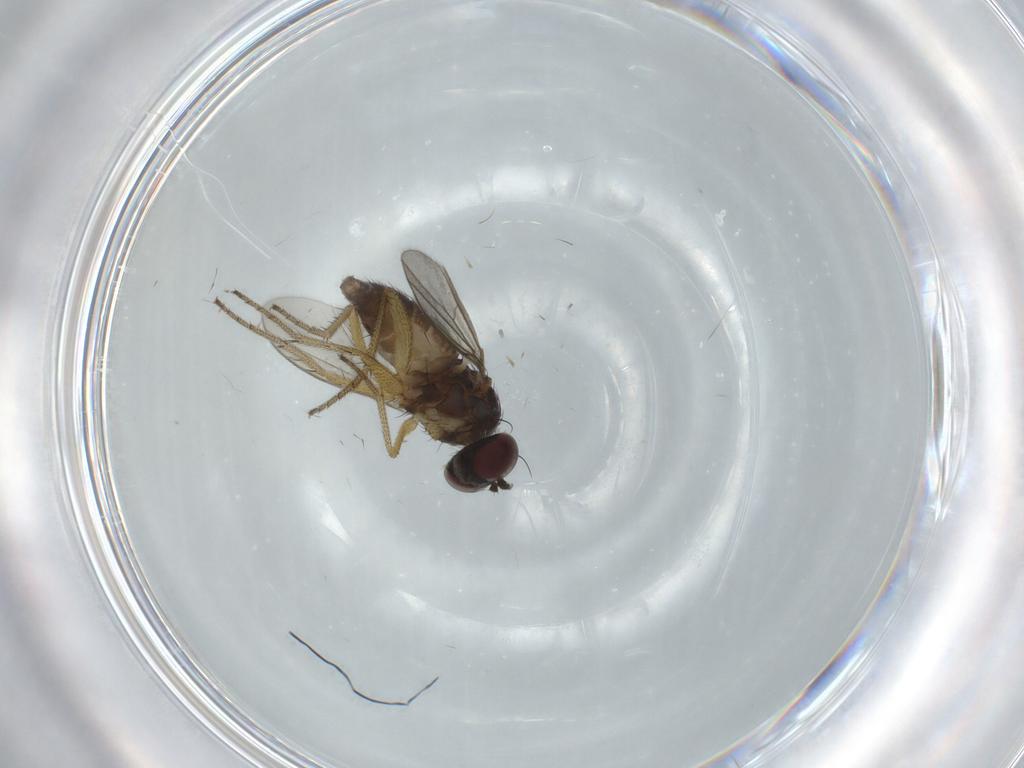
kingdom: Animalia
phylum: Arthropoda
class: Insecta
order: Diptera
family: Dolichopodidae
